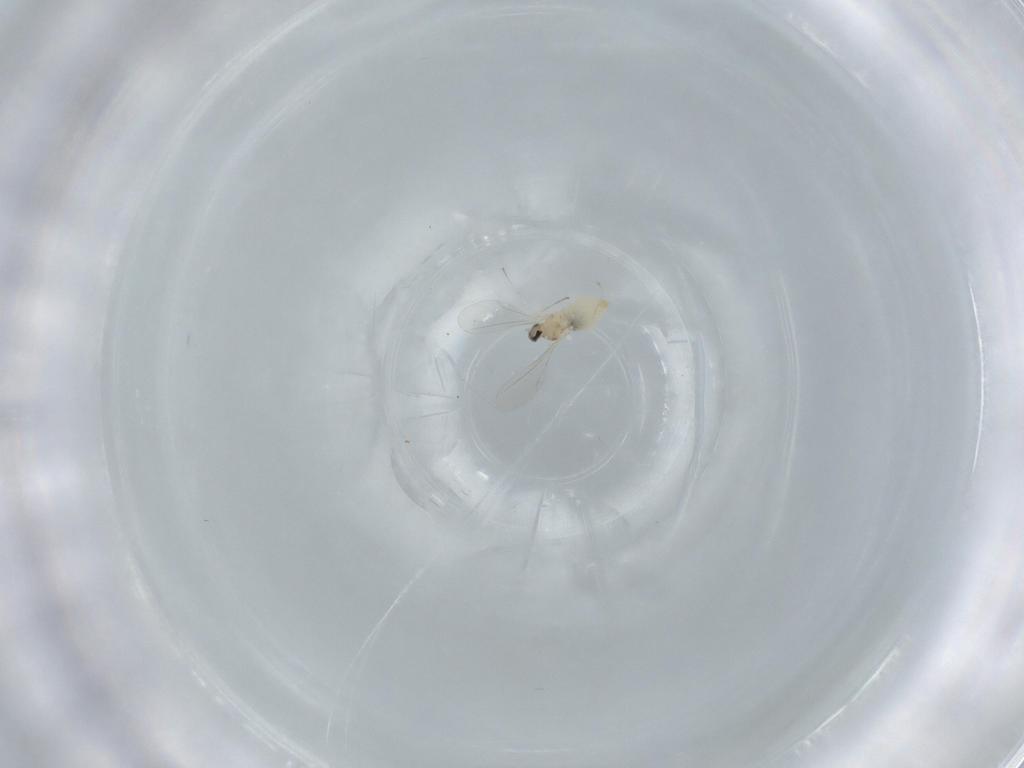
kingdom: Animalia
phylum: Arthropoda
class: Insecta
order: Diptera
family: Cecidomyiidae
